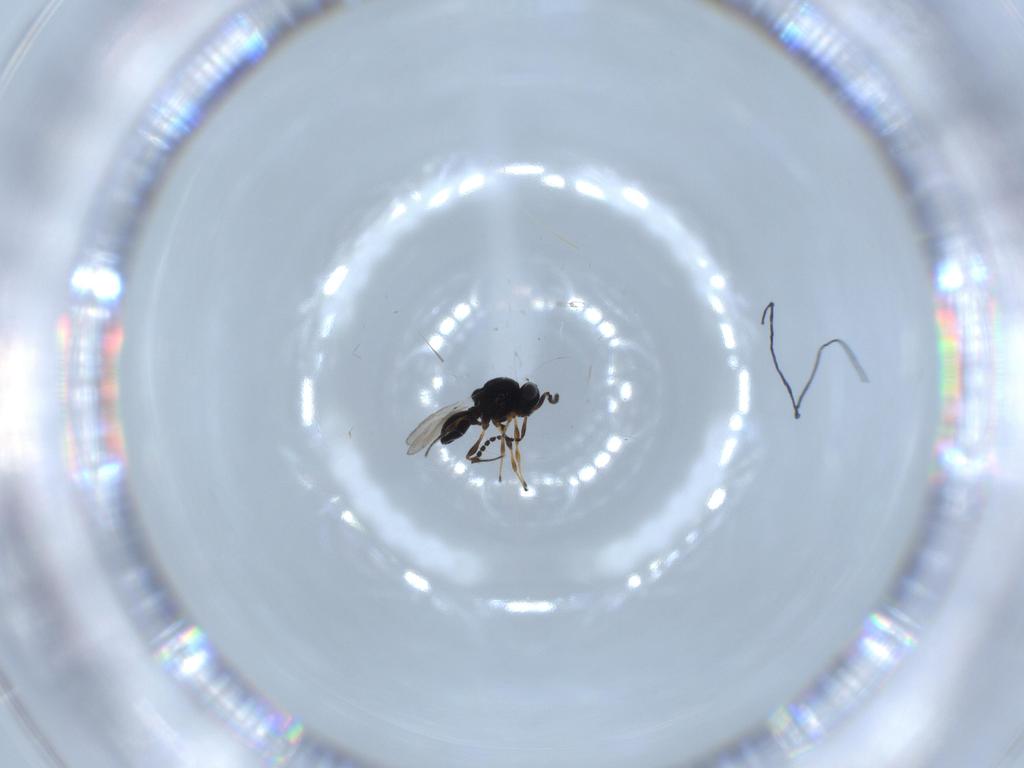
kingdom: Animalia
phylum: Arthropoda
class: Insecta
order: Hymenoptera
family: Platygastridae
